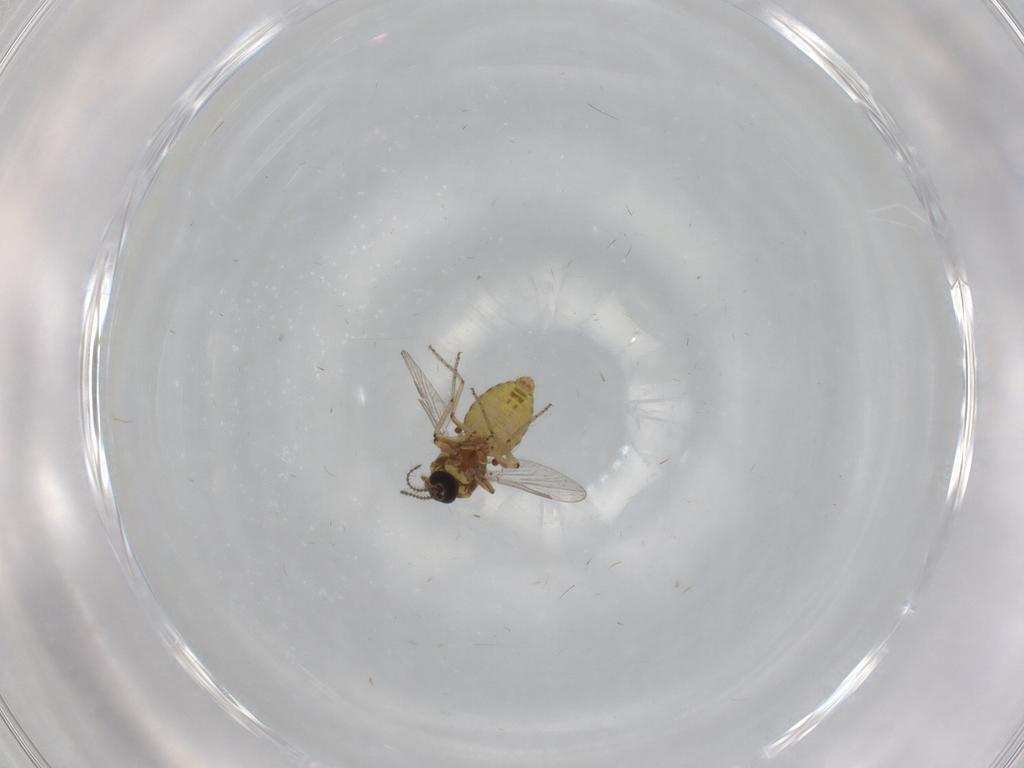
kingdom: Animalia
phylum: Arthropoda
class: Insecta
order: Diptera
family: Ceratopogonidae
